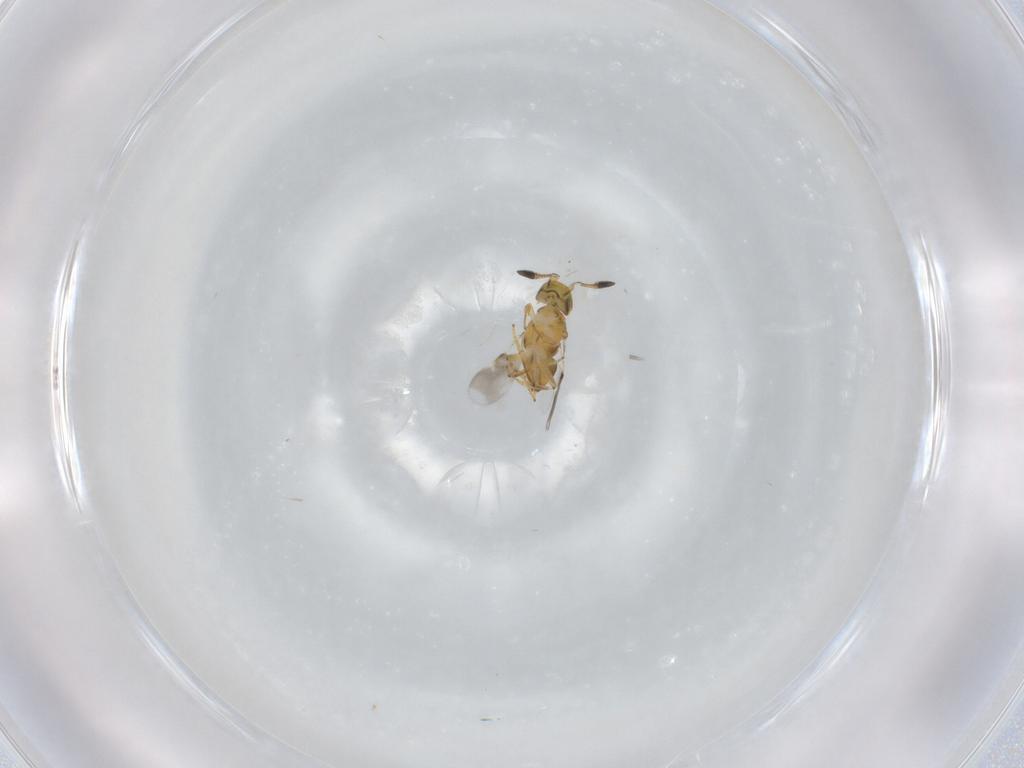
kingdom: Animalia
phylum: Arthropoda
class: Insecta
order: Hymenoptera
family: Encyrtidae
